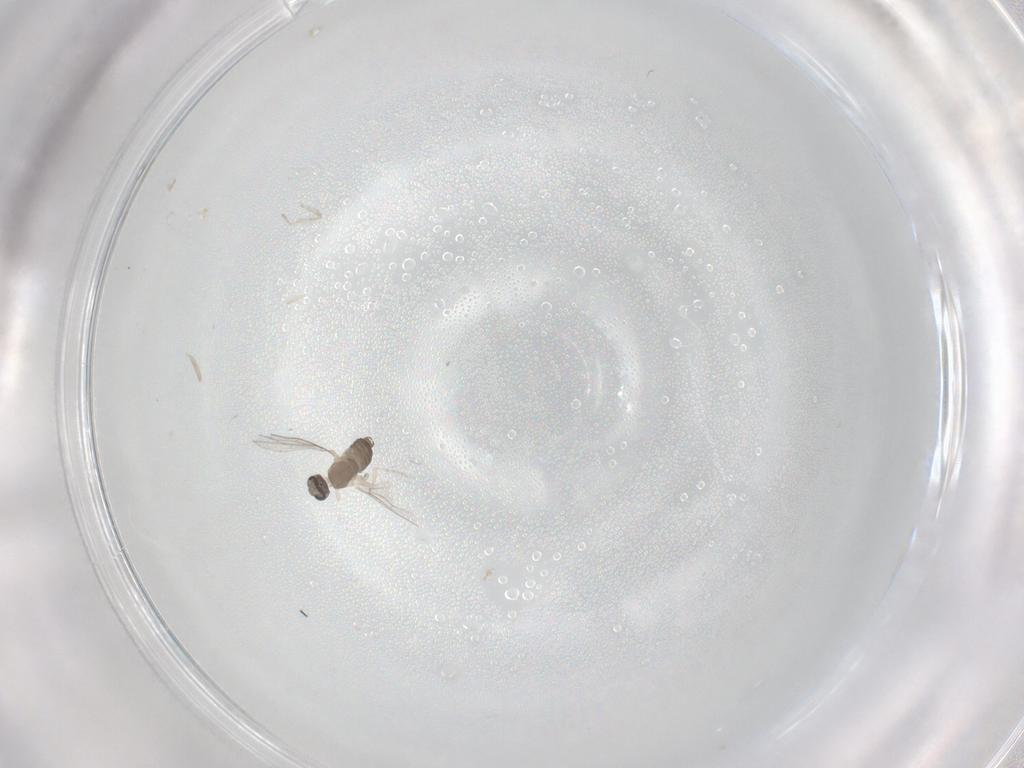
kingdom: Animalia
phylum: Arthropoda
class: Insecta
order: Diptera
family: Cecidomyiidae
